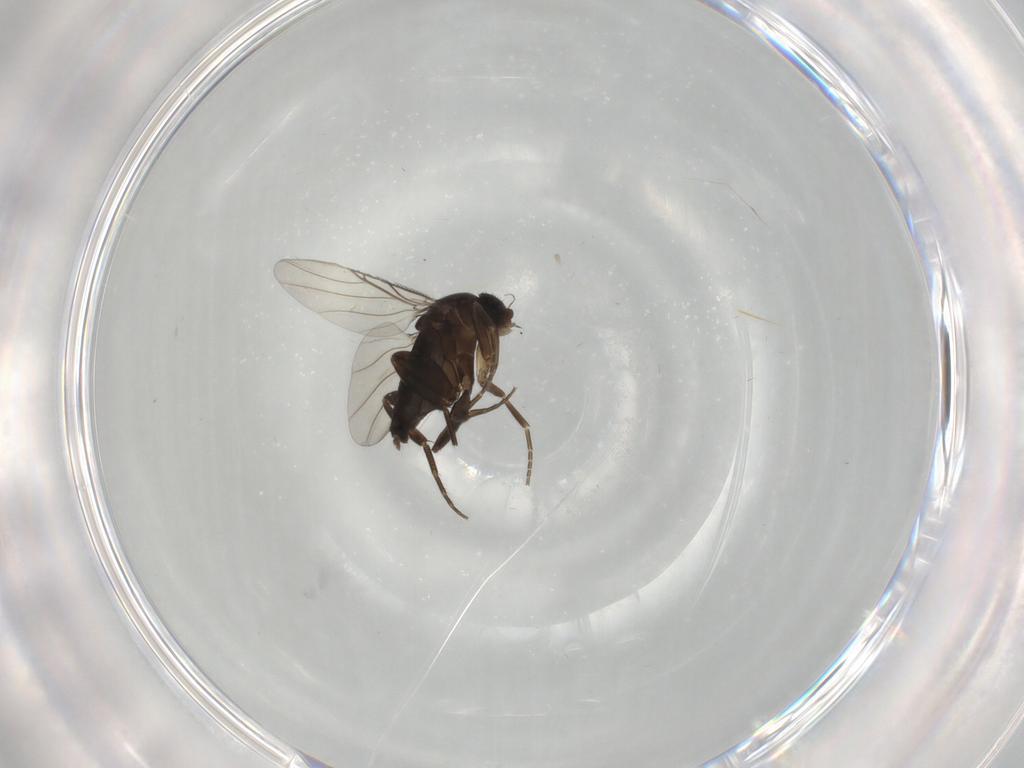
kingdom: Animalia
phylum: Arthropoda
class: Insecta
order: Diptera
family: Phoridae
